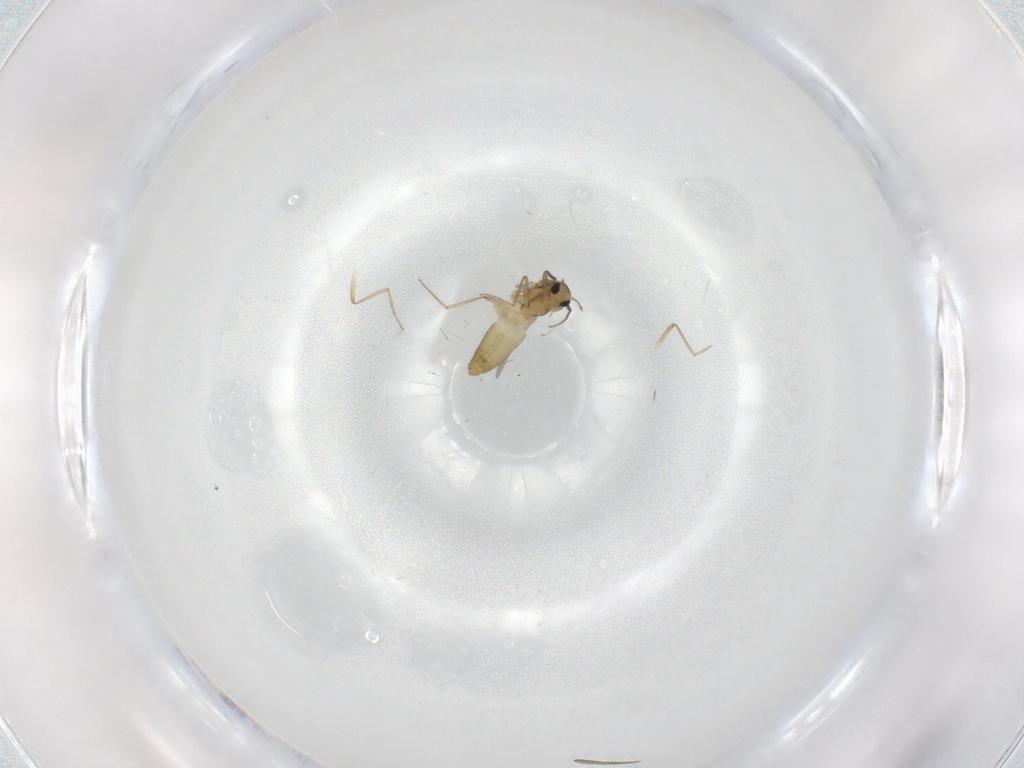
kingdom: Animalia
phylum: Arthropoda
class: Insecta
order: Diptera
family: Chironomidae
